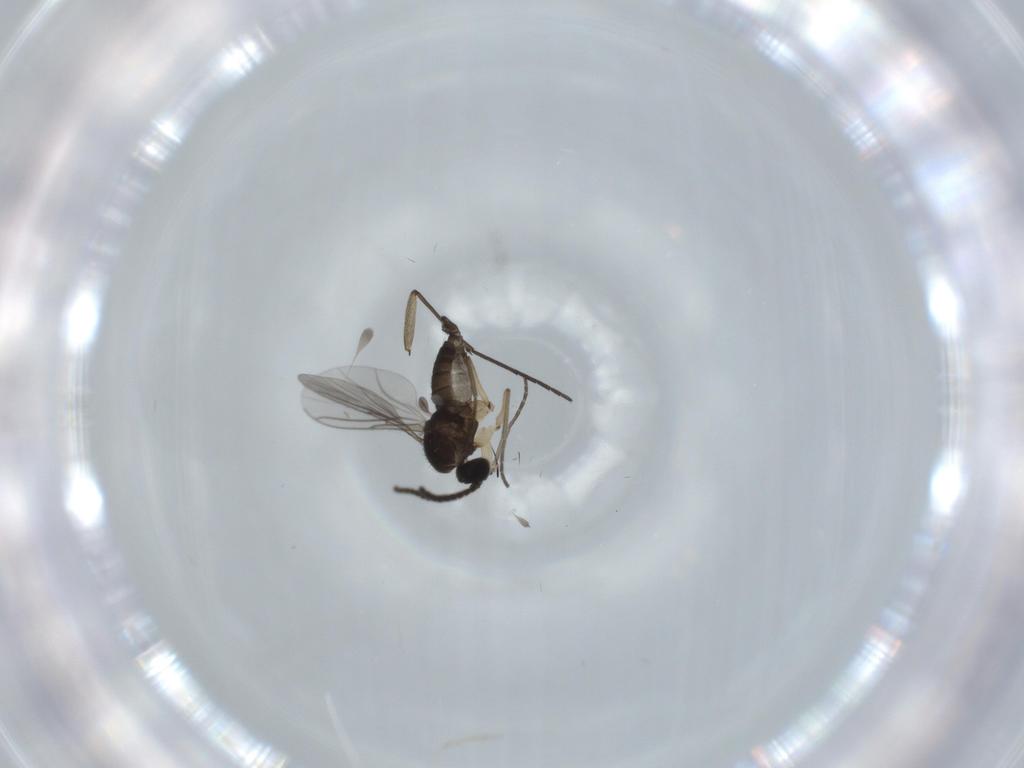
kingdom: Animalia
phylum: Arthropoda
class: Insecta
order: Diptera
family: Sciaridae
